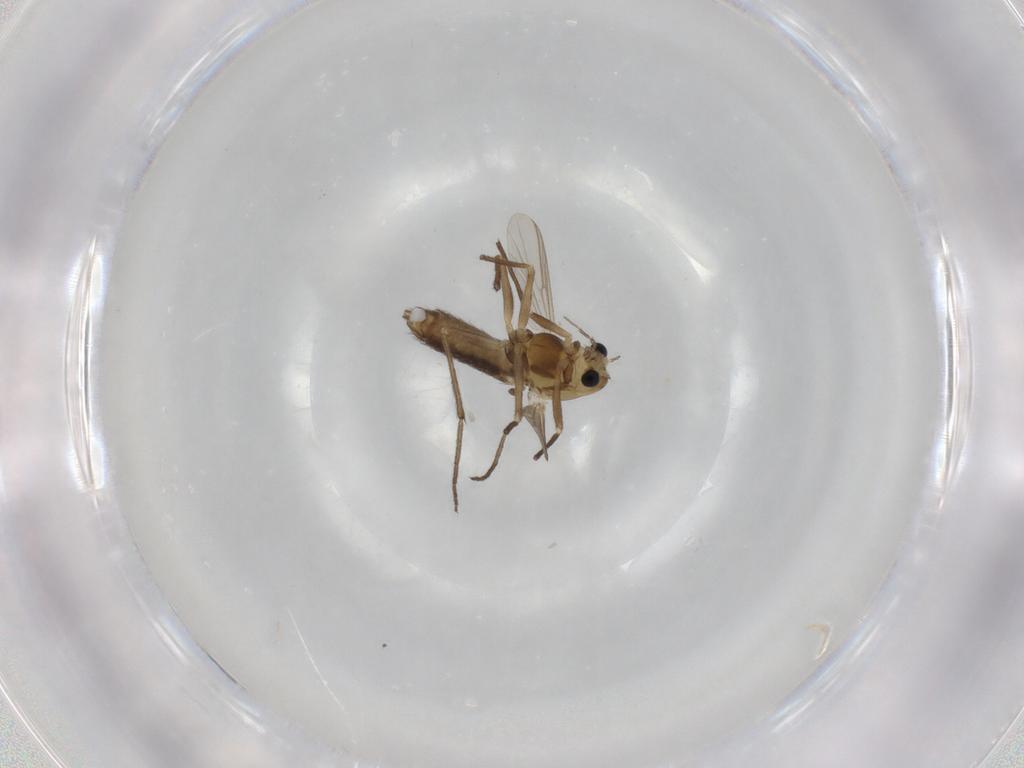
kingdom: Animalia
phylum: Arthropoda
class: Insecta
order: Diptera
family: Chironomidae
